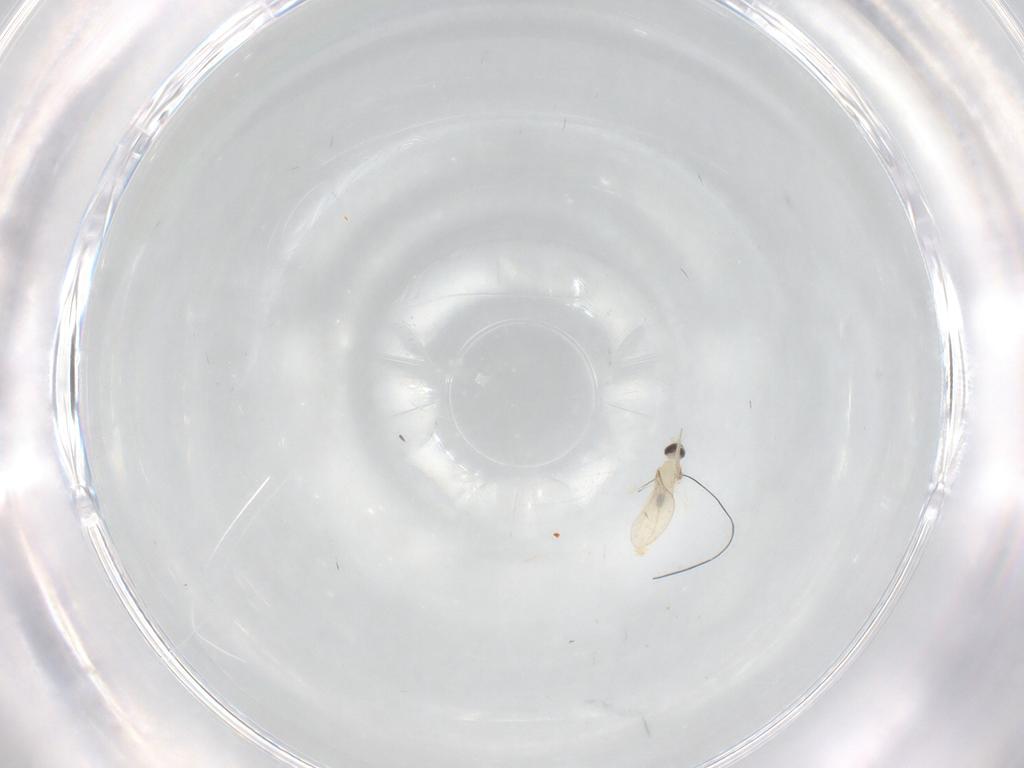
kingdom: Animalia
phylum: Arthropoda
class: Insecta
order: Diptera
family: Cecidomyiidae
